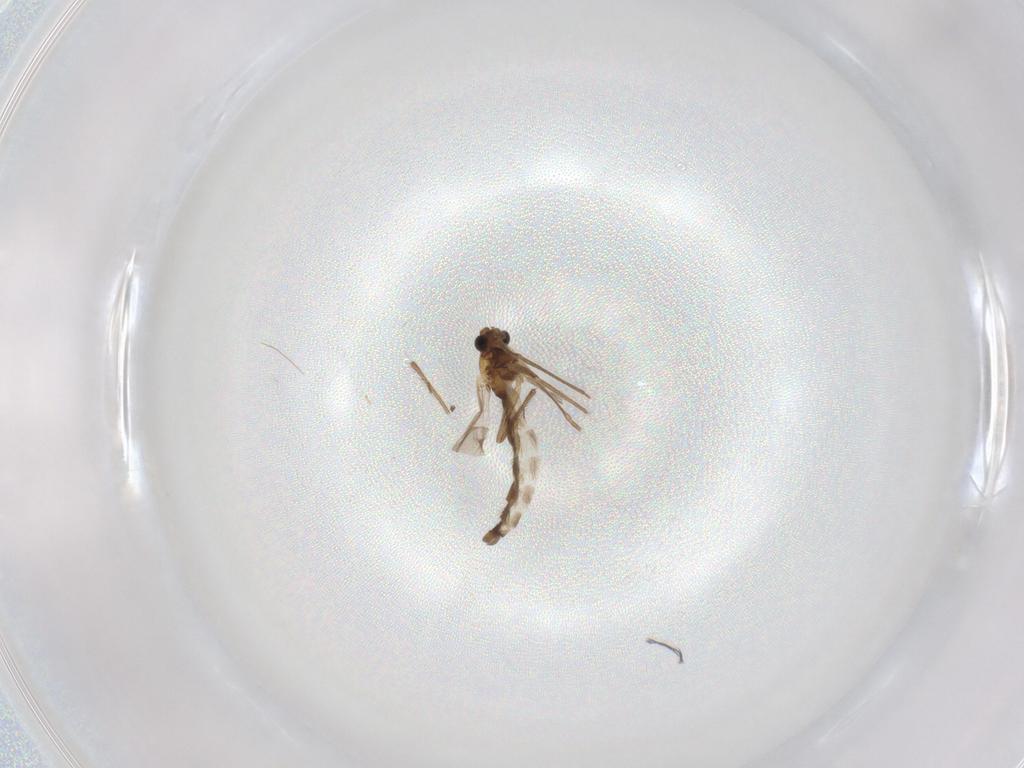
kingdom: Animalia
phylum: Arthropoda
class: Insecta
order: Diptera
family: Chironomidae
